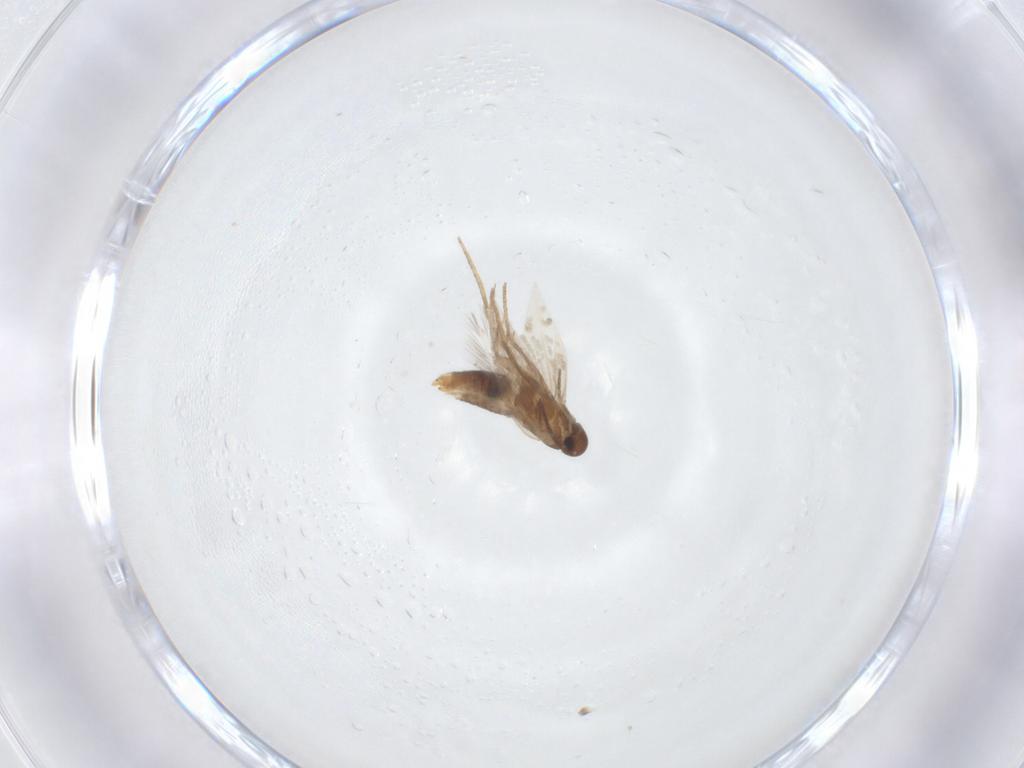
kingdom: Animalia
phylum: Arthropoda
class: Insecta
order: Lepidoptera
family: Heliozelidae
